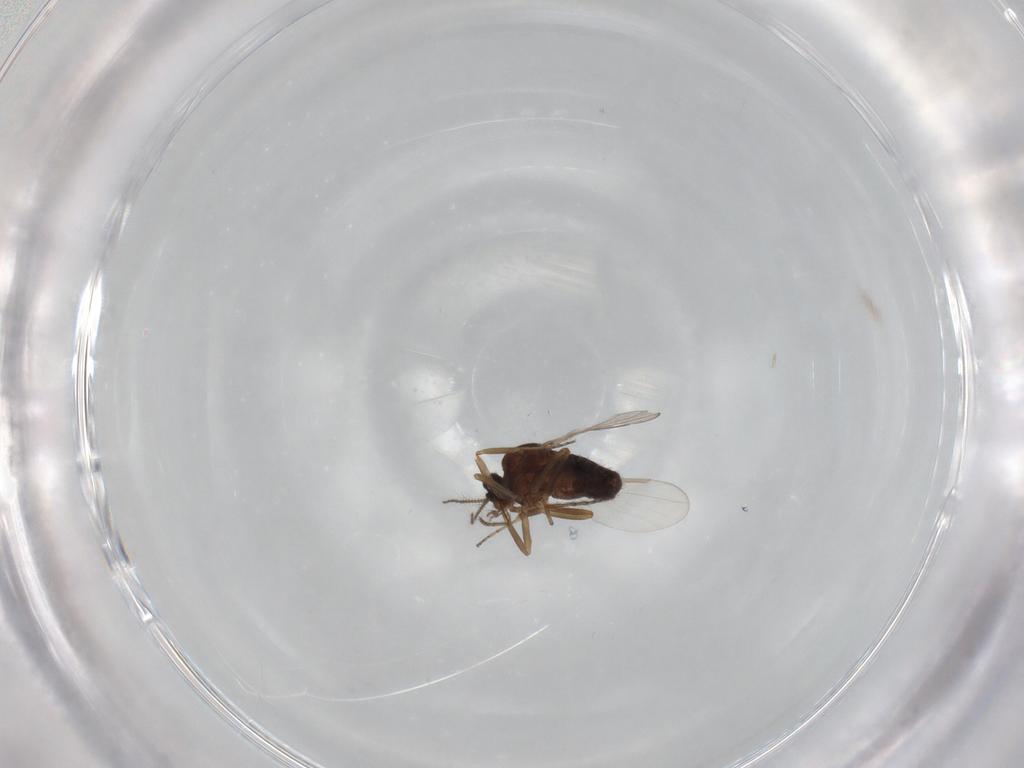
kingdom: Animalia
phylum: Arthropoda
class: Insecta
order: Diptera
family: Ceratopogonidae
